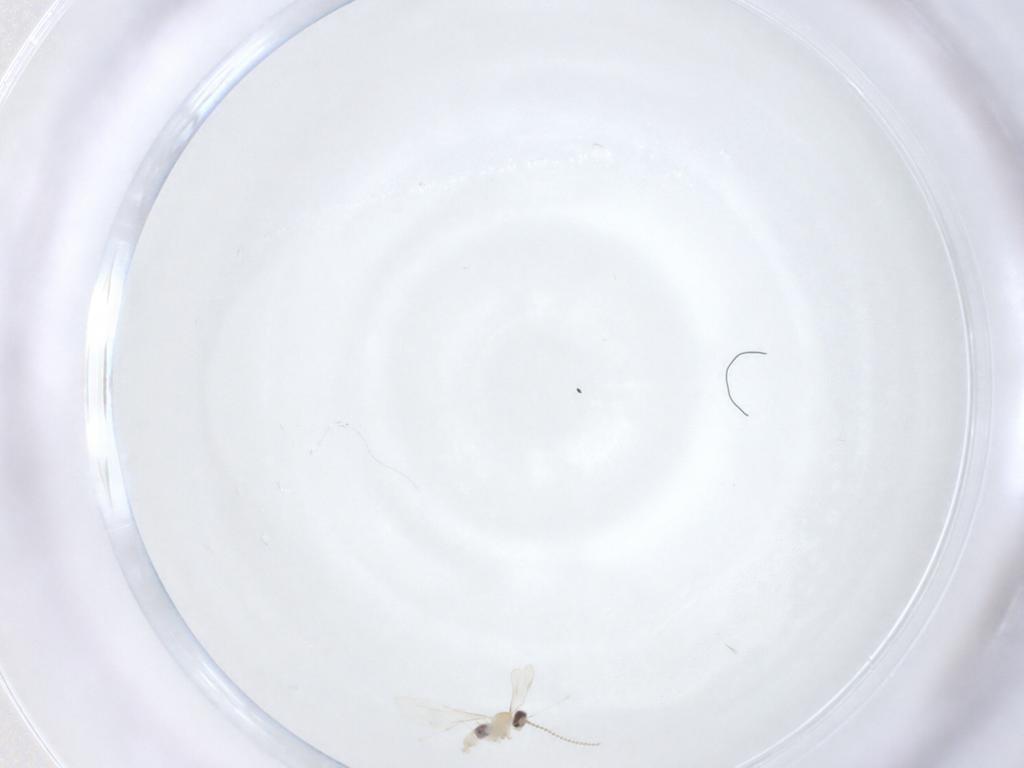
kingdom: Animalia
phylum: Arthropoda
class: Insecta
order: Diptera
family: Cecidomyiidae
